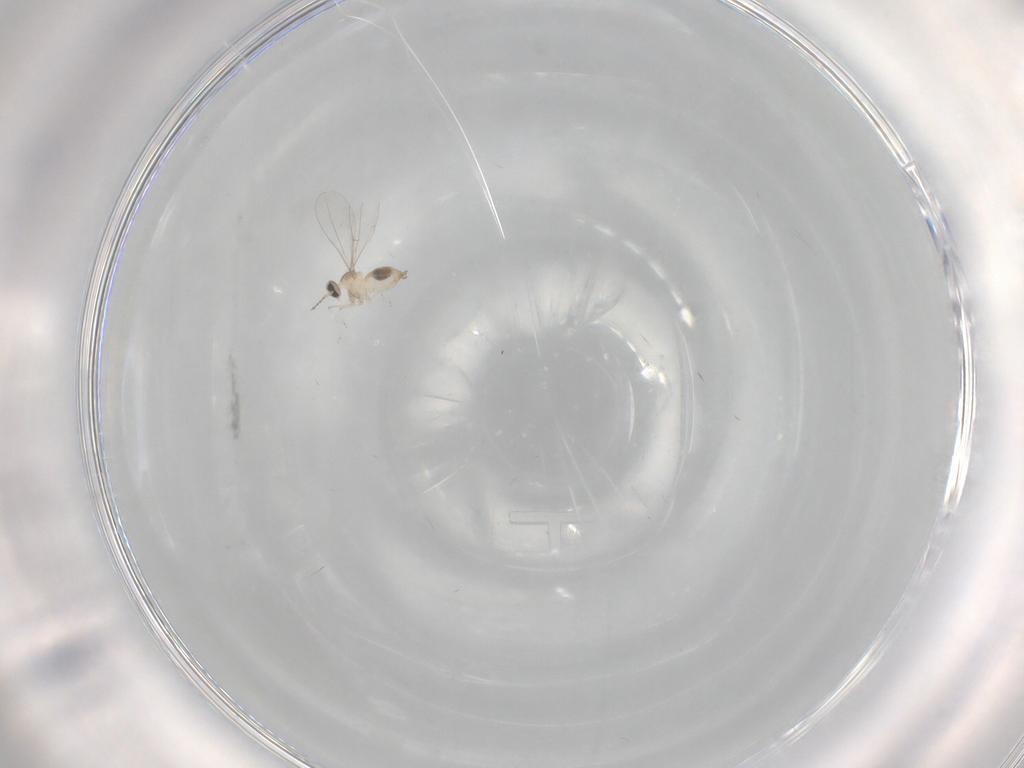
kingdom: Animalia
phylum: Arthropoda
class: Insecta
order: Diptera
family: Cecidomyiidae
